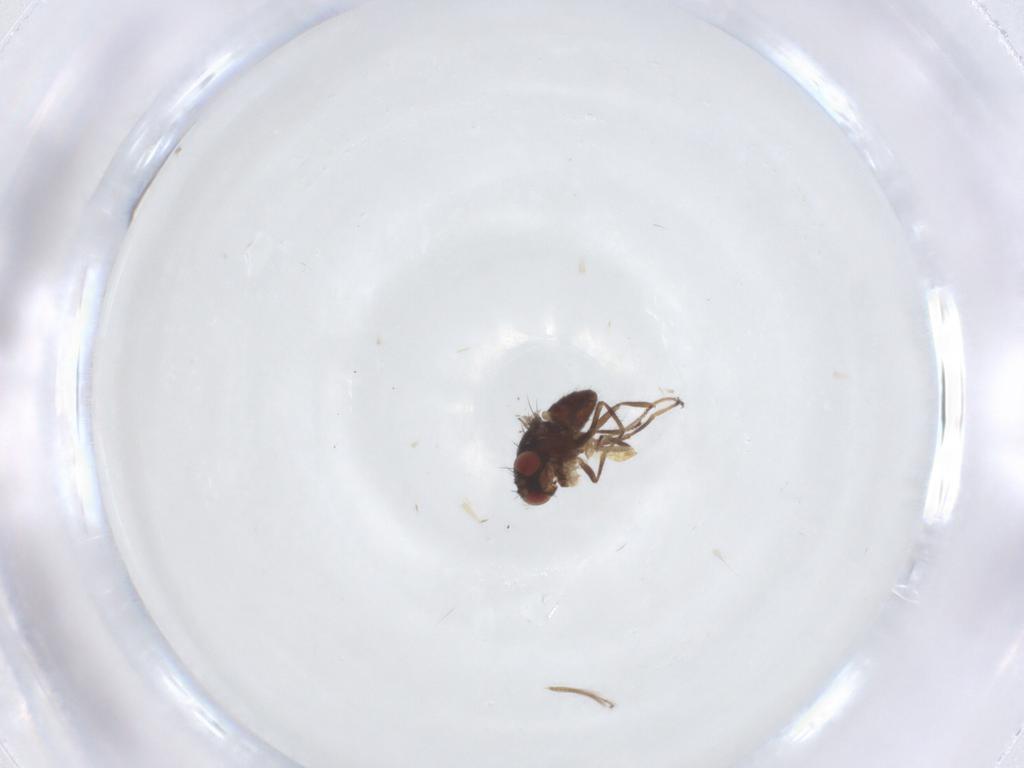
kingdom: Animalia
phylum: Arthropoda
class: Insecta
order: Diptera
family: Ephydridae
